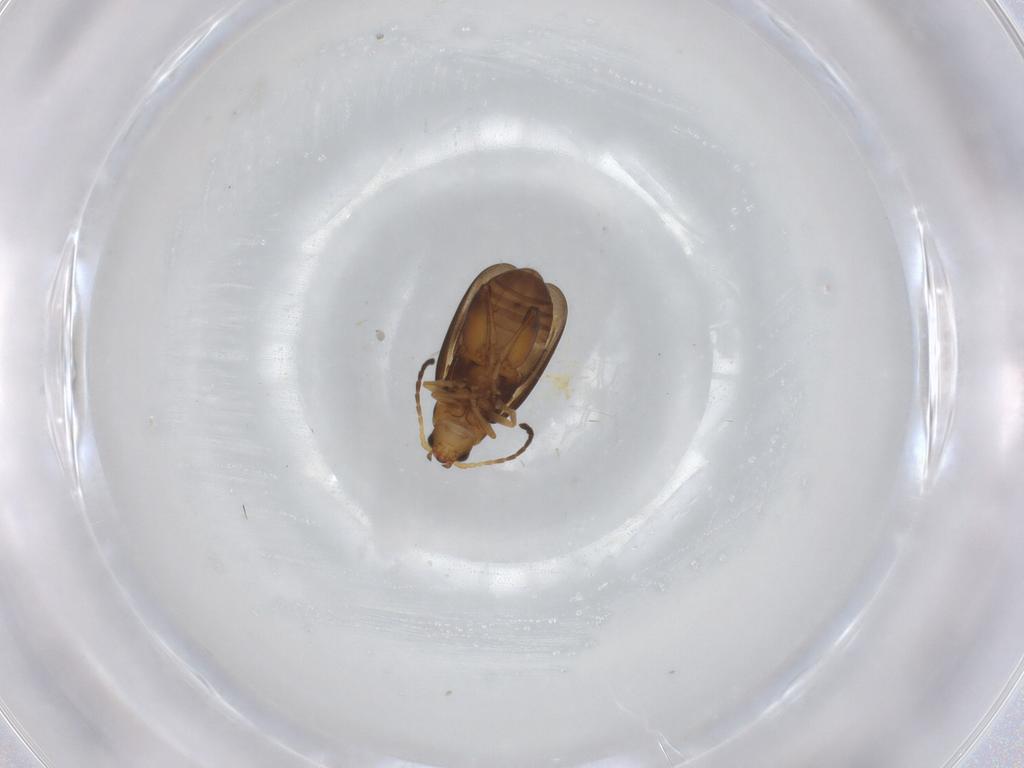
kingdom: Animalia
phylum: Arthropoda
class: Insecta
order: Coleoptera
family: Chrysomelidae
